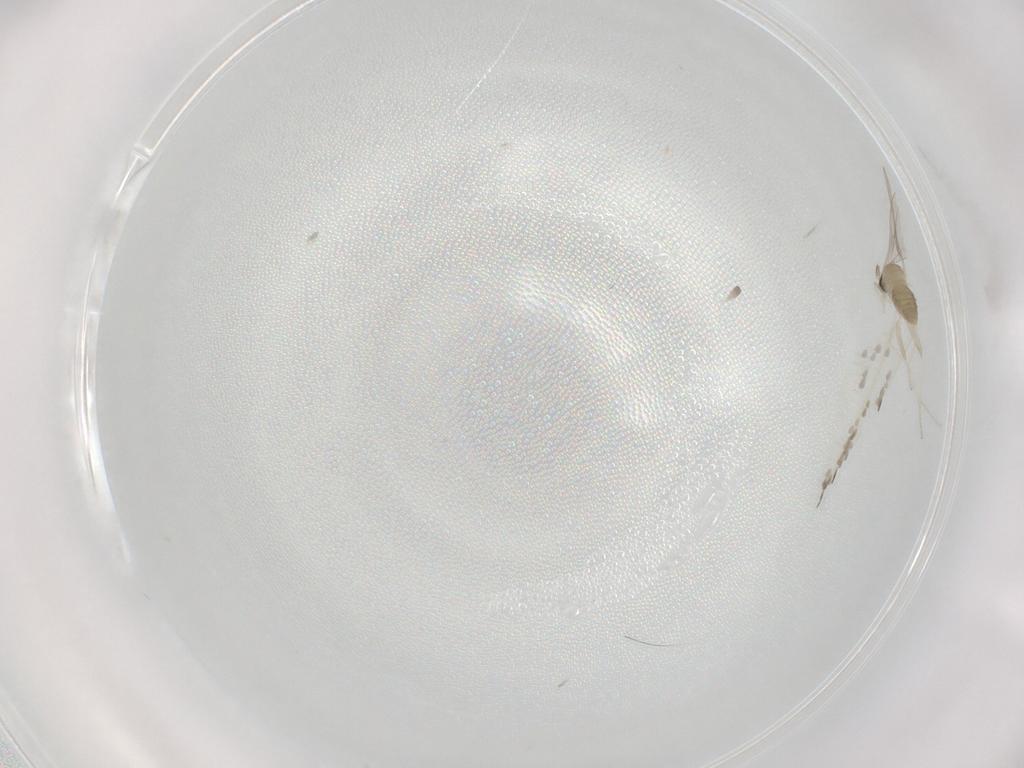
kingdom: Animalia
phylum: Arthropoda
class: Insecta
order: Diptera
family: Cecidomyiidae
